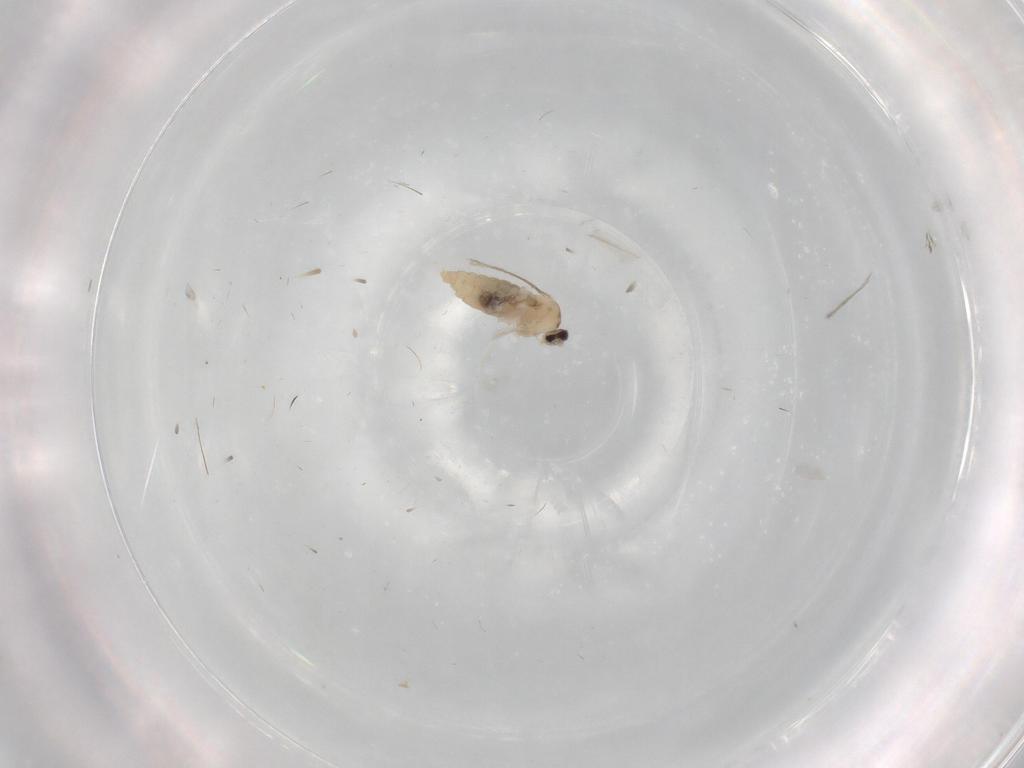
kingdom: Animalia
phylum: Arthropoda
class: Insecta
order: Diptera
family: Cecidomyiidae
